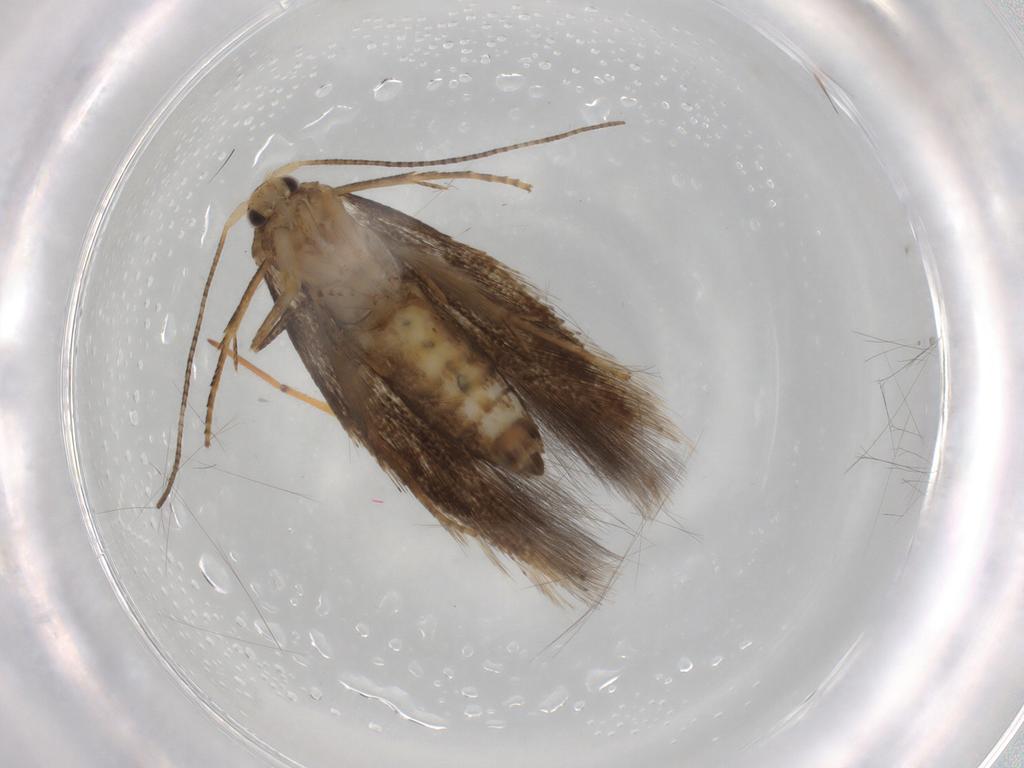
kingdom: Animalia
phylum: Arthropoda
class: Insecta
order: Lepidoptera
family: Bucculatricidae
